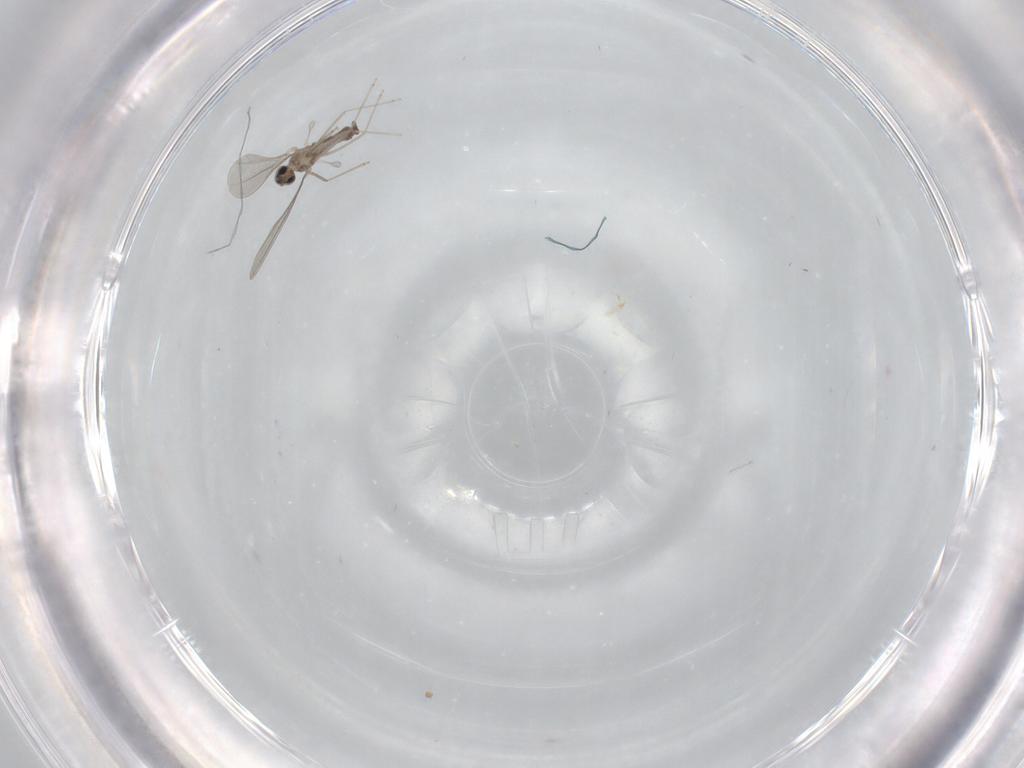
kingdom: Animalia
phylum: Arthropoda
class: Insecta
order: Diptera
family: Cecidomyiidae
